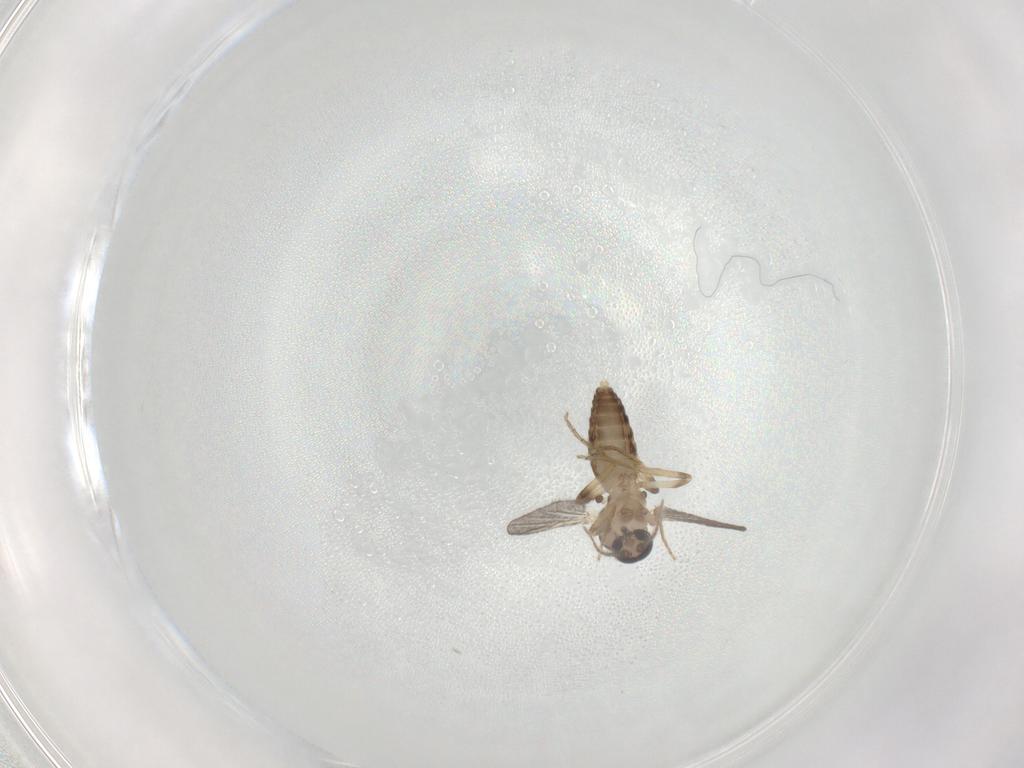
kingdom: Animalia
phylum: Arthropoda
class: Insecta
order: Diptera
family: Ceratopogonidae
